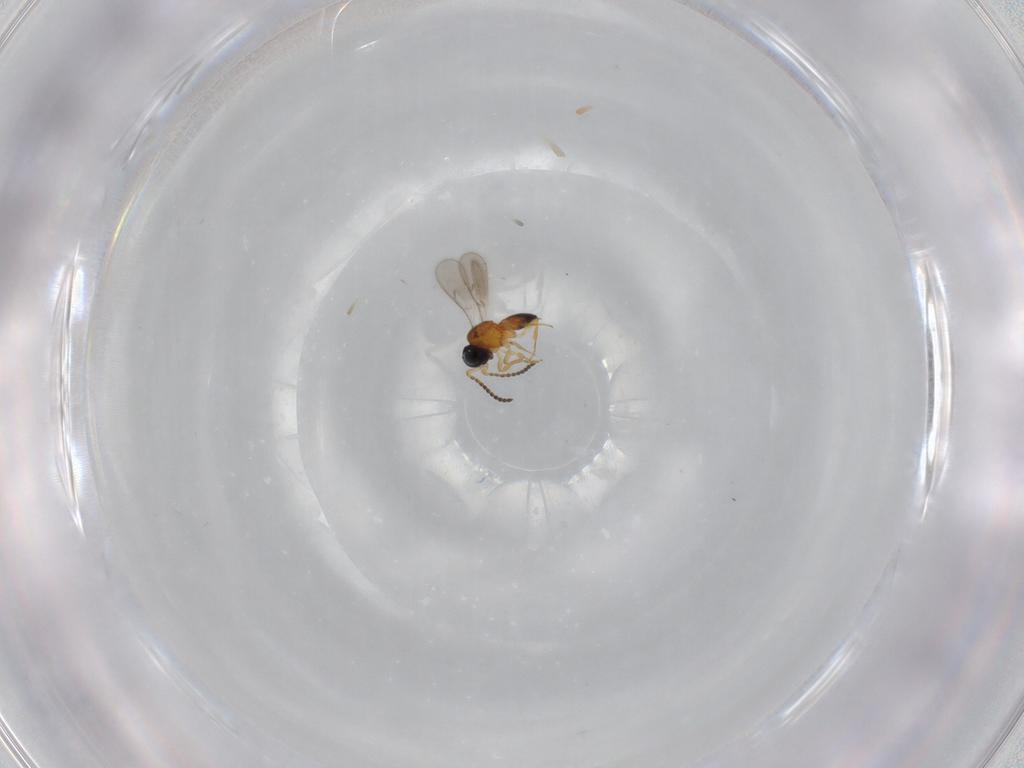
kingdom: Animalia
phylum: Arthropoda
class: Insecta
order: Hymenoptera
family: Scelionidae
